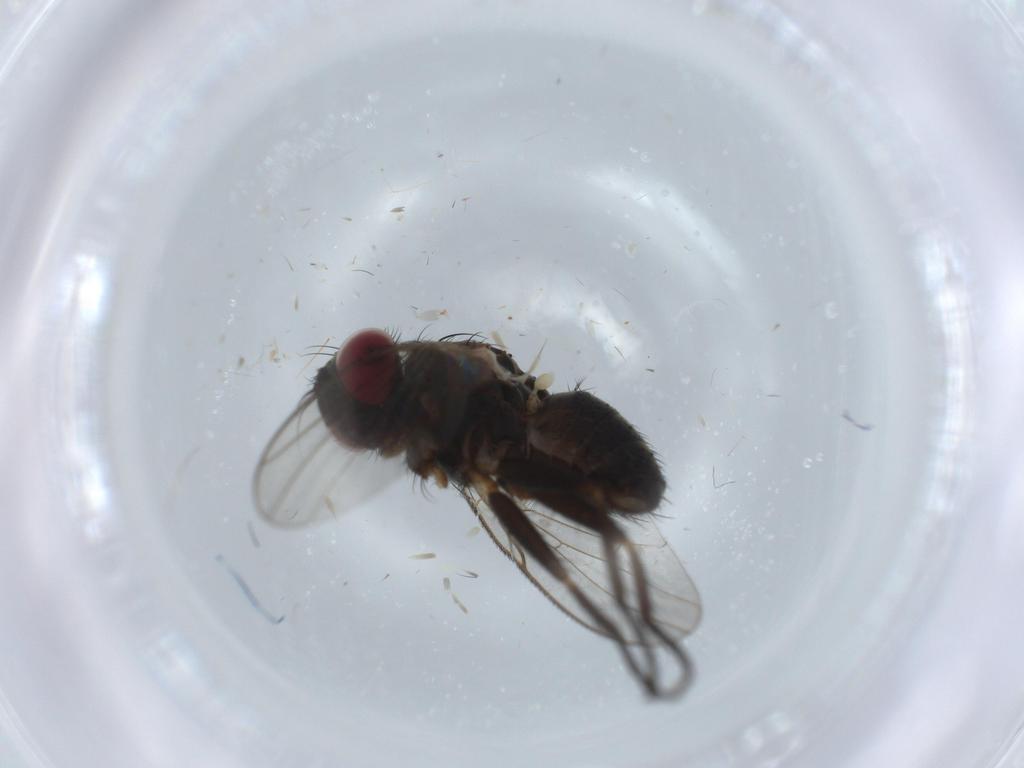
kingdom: Animalia
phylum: Arthropoda
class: Insecta
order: Diptera
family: Muscidae
